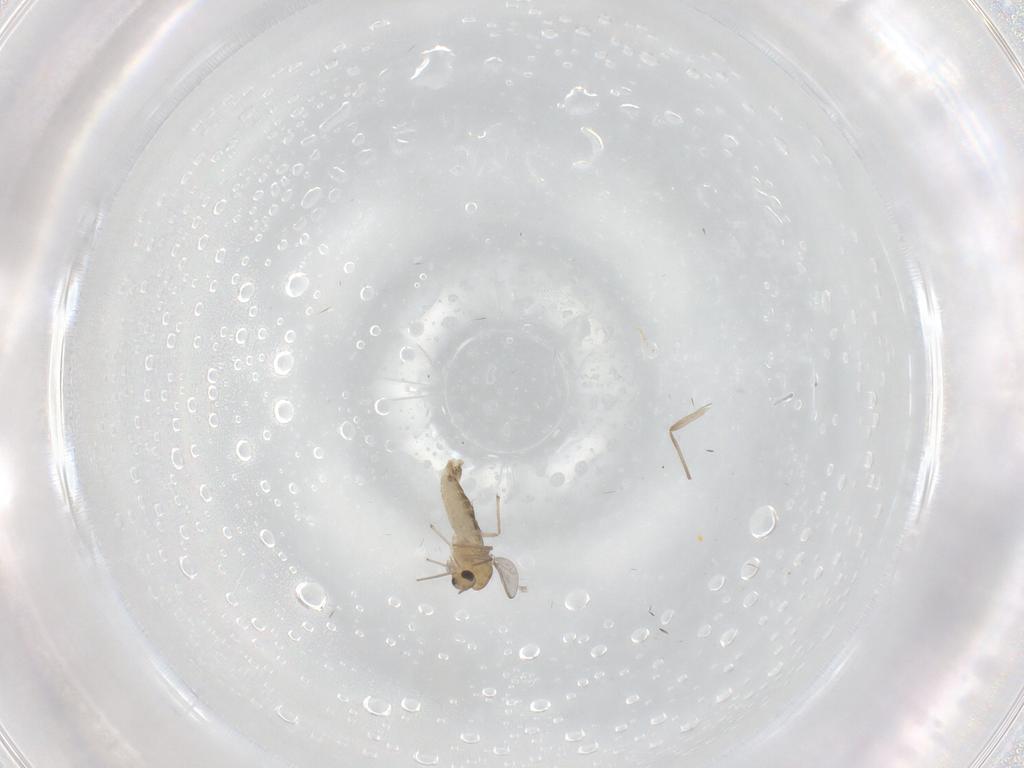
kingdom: Animalia
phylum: Arthropoda
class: Insecta
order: Diptera
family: Chironomidae
